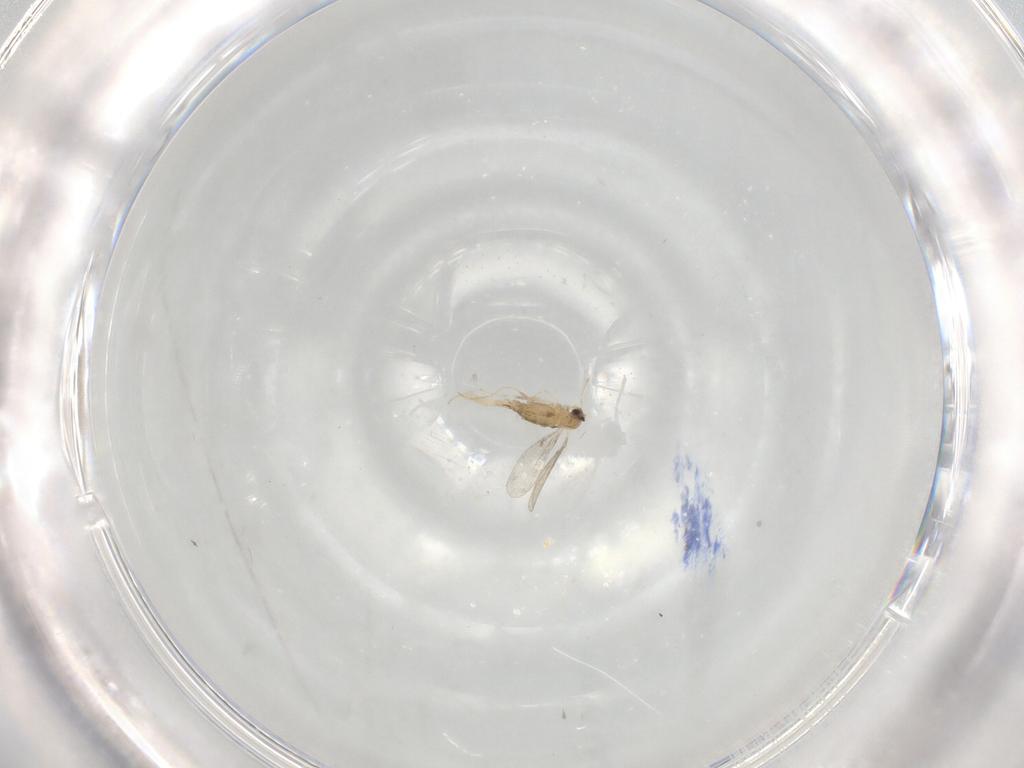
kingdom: Animalia
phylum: Arthropoda
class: Insecta
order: Diptera
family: Cecidomyiidae
